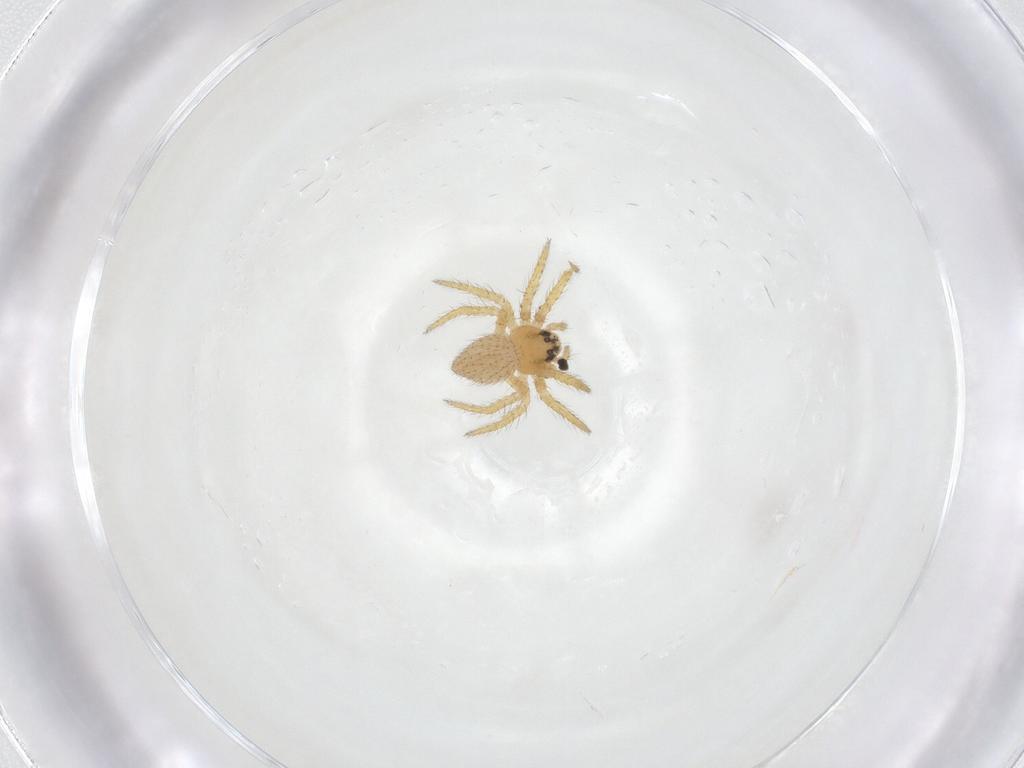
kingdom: Animalia
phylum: Arthropoda
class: Arachnida
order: Araneae
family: Theridiidae
